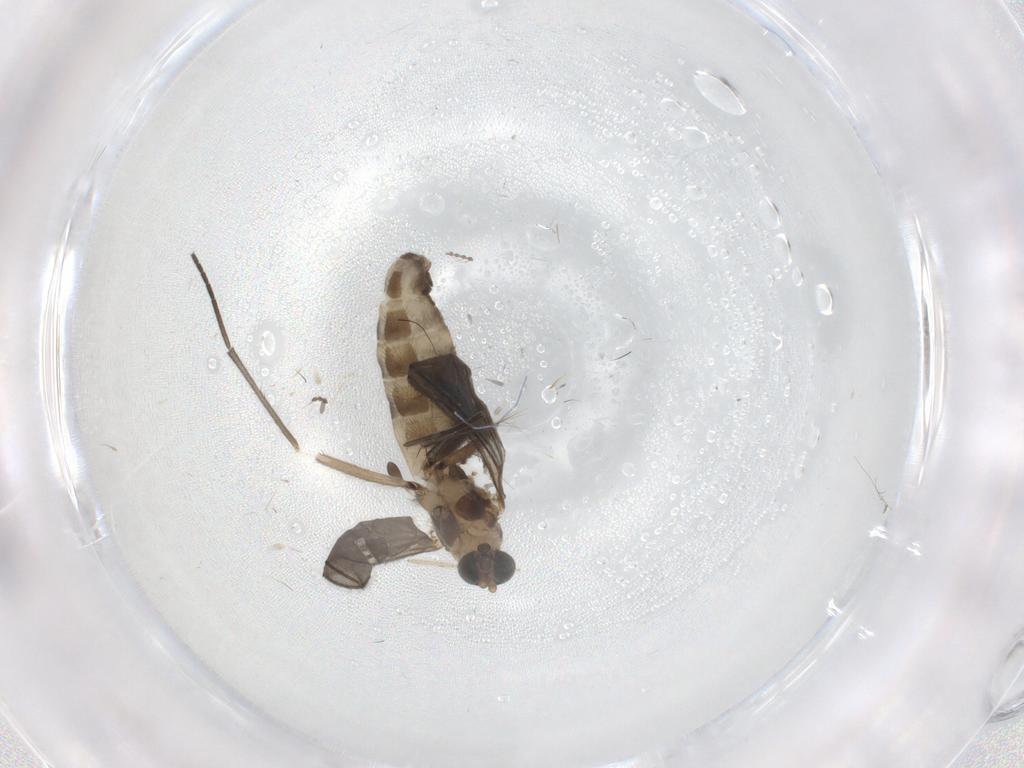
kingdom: Animalia
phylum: Arthropoda
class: Insecta
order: Diptera
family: Cecidomyiidae
